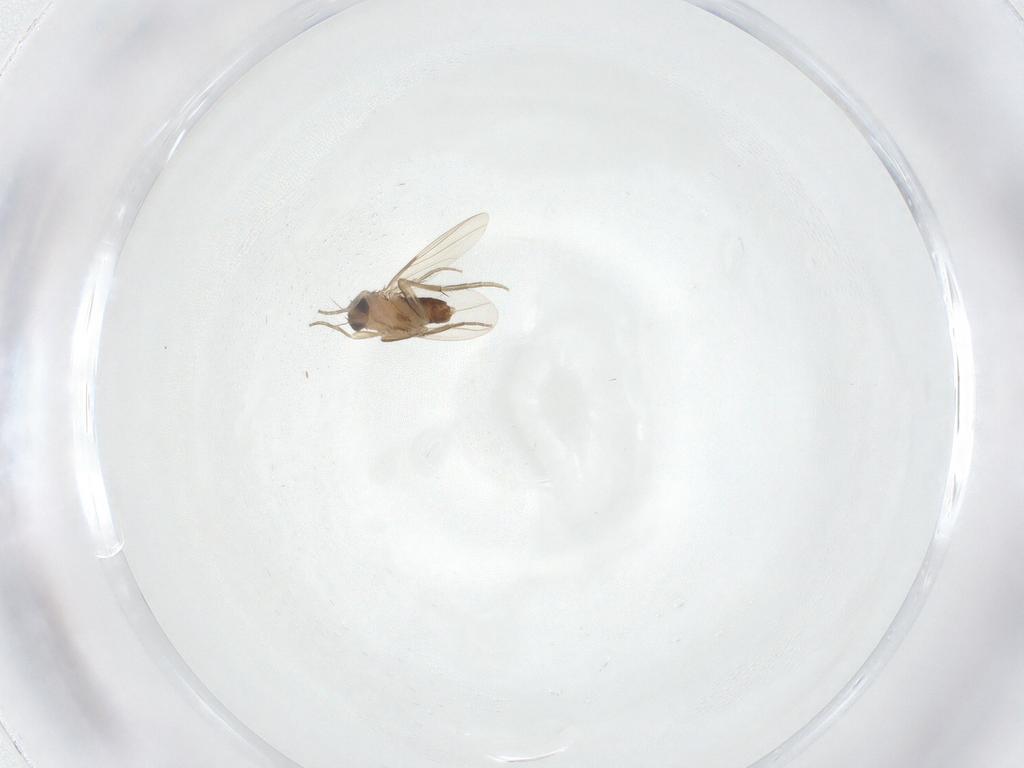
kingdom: Animalia
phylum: Arthropoda
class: Insecta
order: Diptera
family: Phoridae
